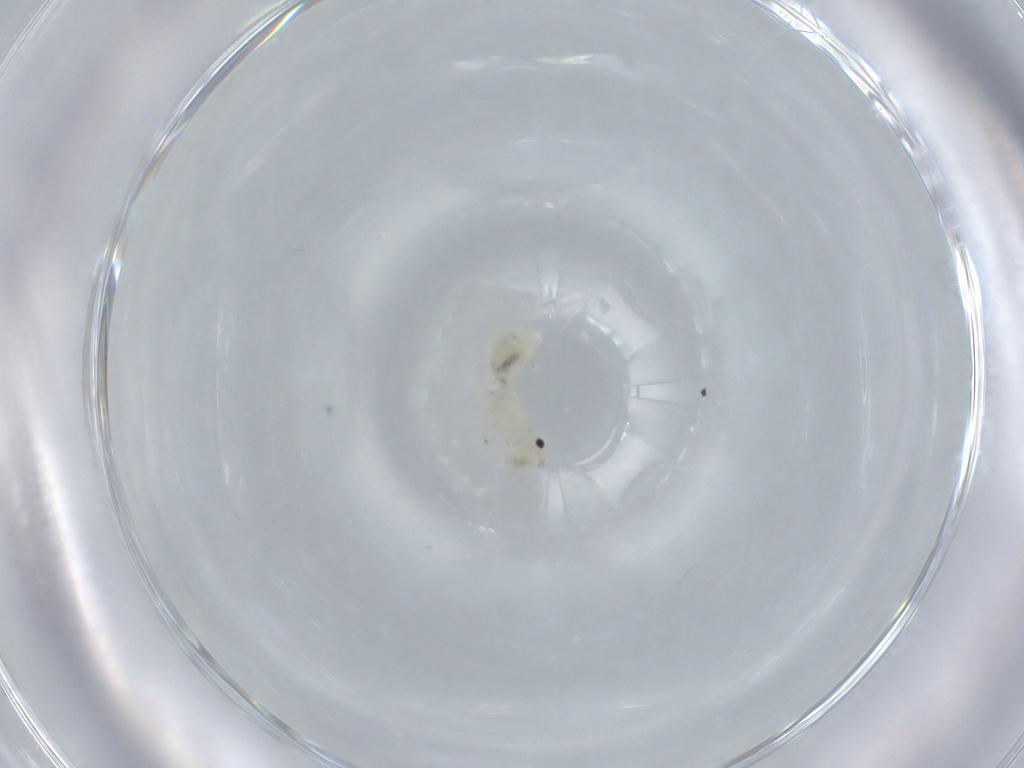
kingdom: Animalia
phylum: Arthropoda
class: Insecta
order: Psocodea
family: Caeciliusidae
